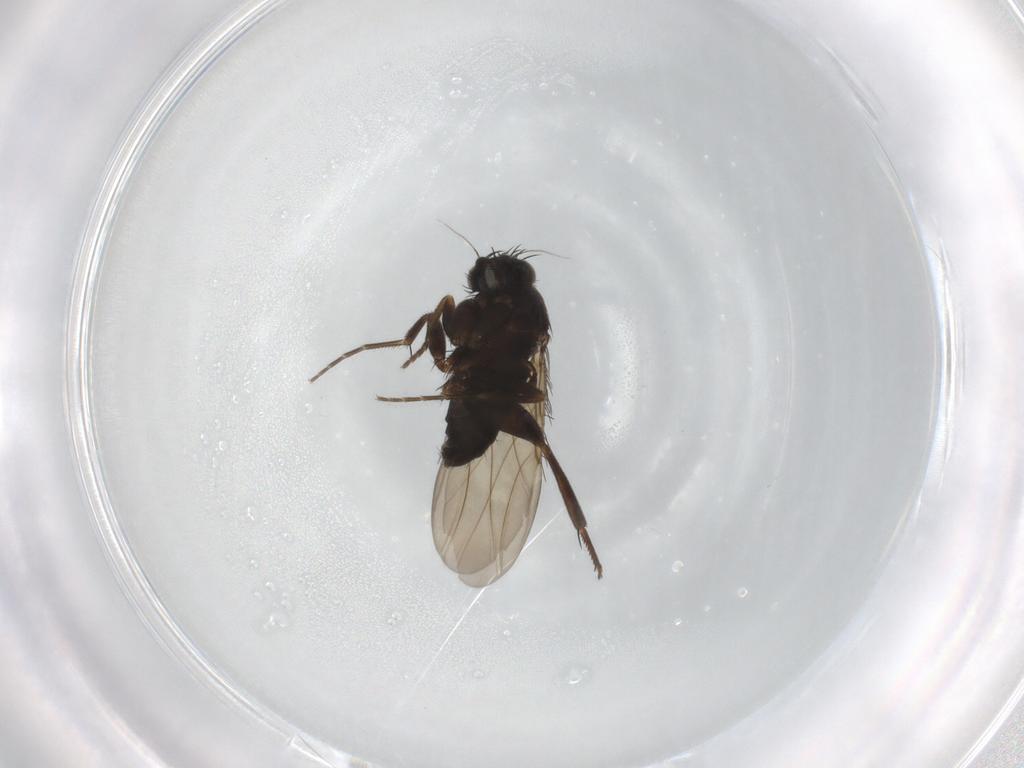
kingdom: Animalia
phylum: Arthropoda
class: Insecta
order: Diptera
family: Phoridae
